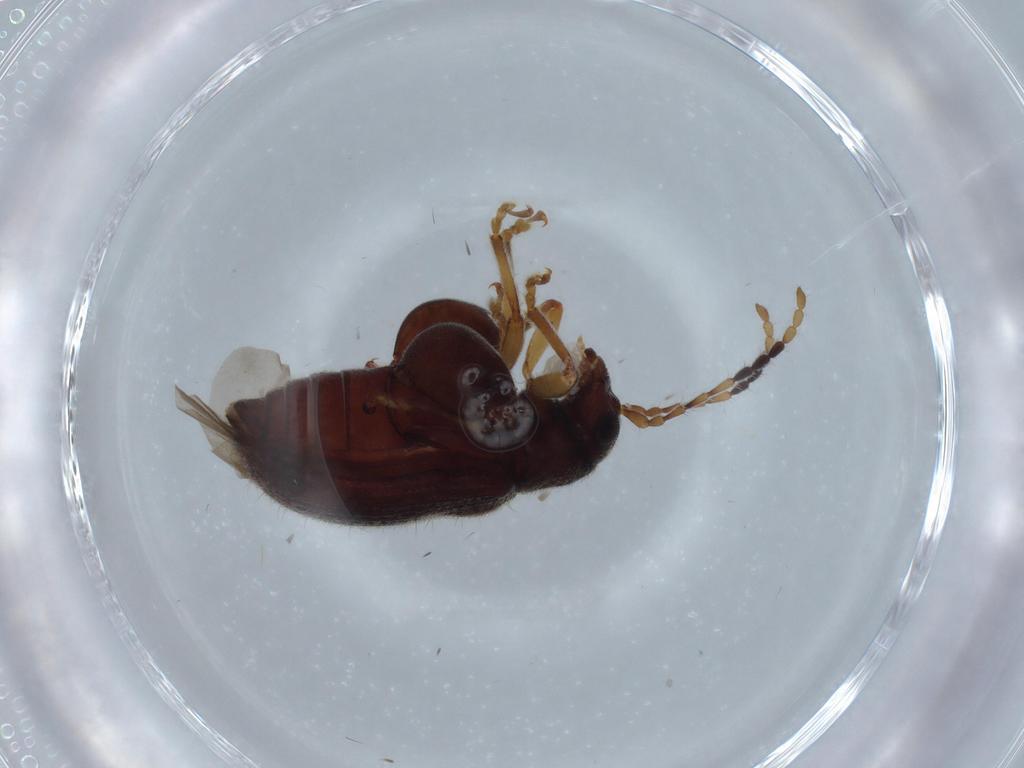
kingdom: Animalia
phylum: Arthropoda
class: Insecta
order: Coleoptera
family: Chrysomelidae
